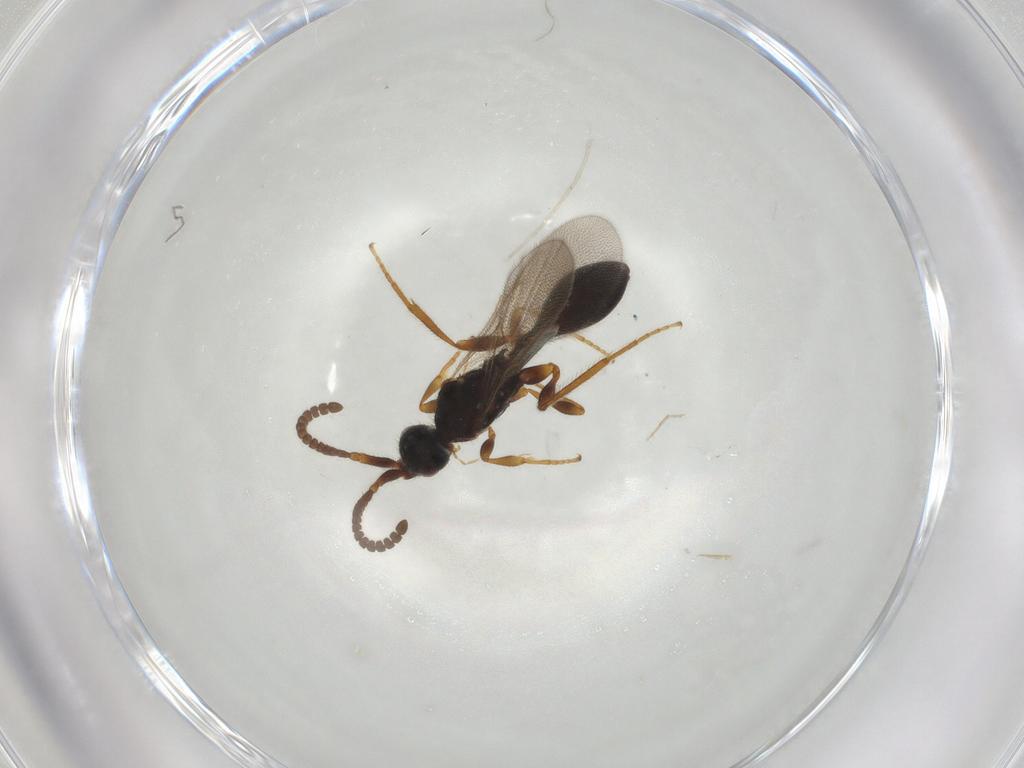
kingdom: Animalia
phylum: Arthropoda
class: Insecta
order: Hymenoptera
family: Diapriidae
